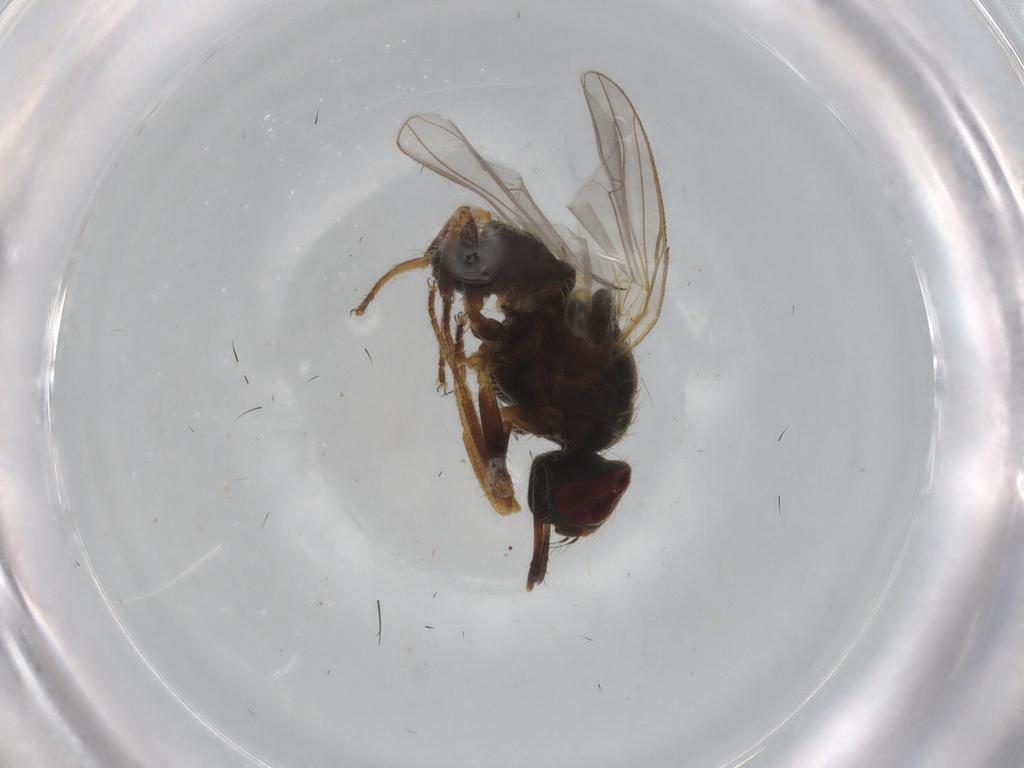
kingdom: Animalia
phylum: Arthropoda
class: Insecta
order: Diptera
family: Muscidae
